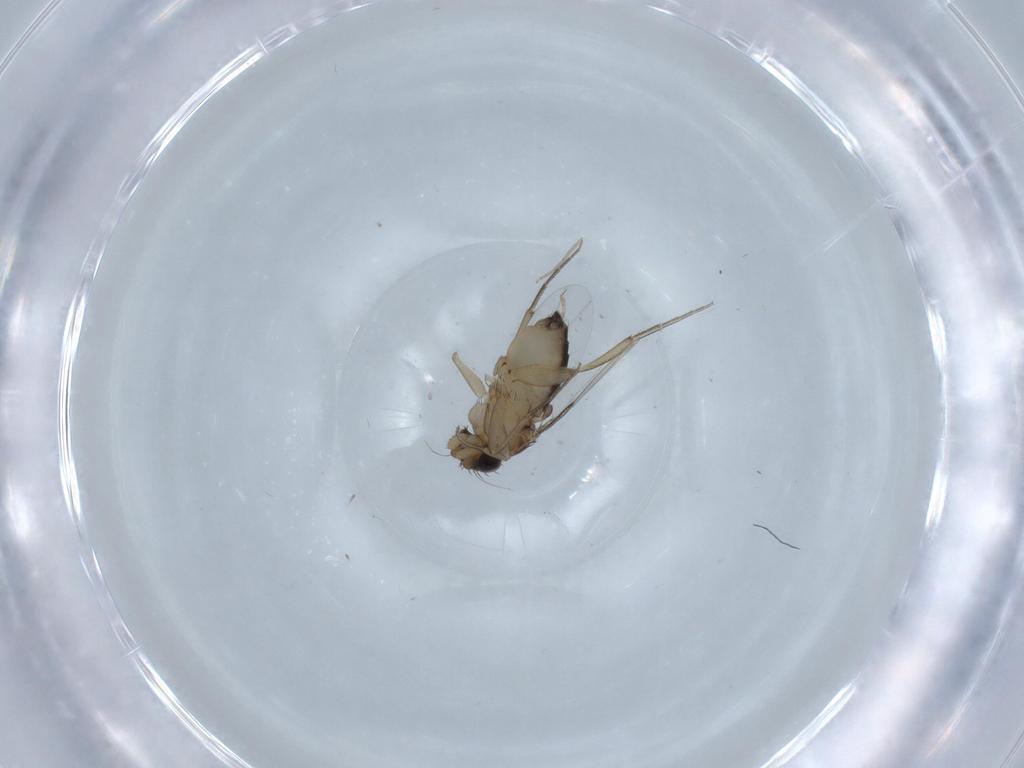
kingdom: Animalia
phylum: Arthropoda
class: Insecta
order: Diptera
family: Chironomidae
